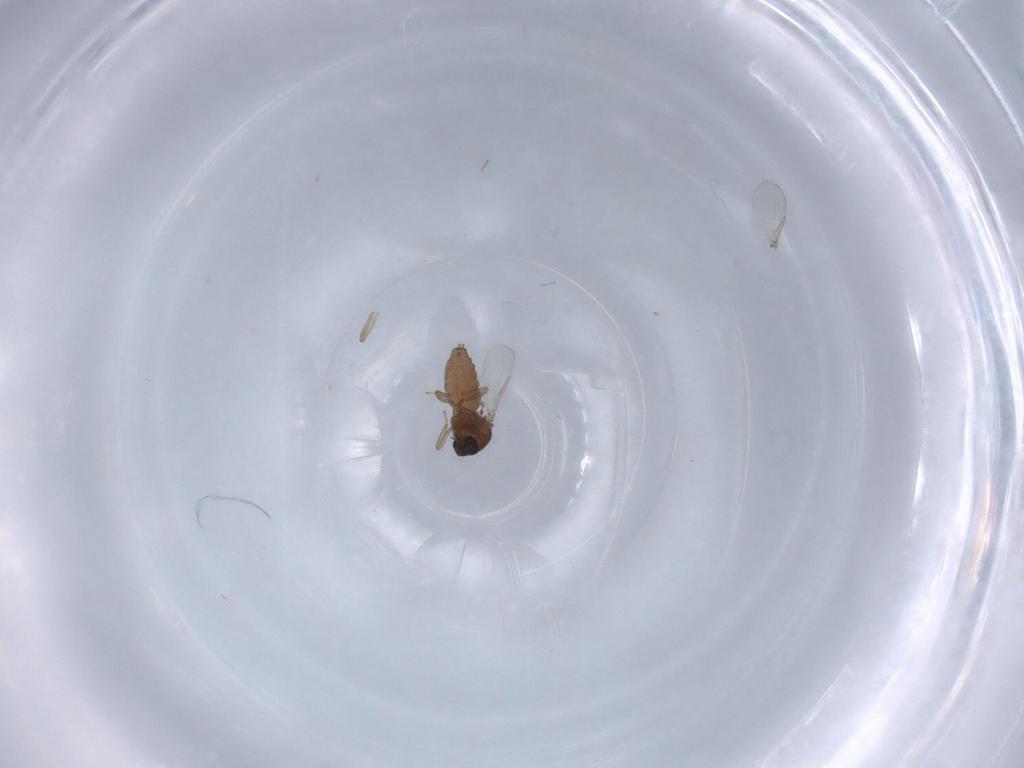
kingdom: Animalia
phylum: Arthropoda
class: Insecta
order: Diptera
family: Ceratopogonidae
